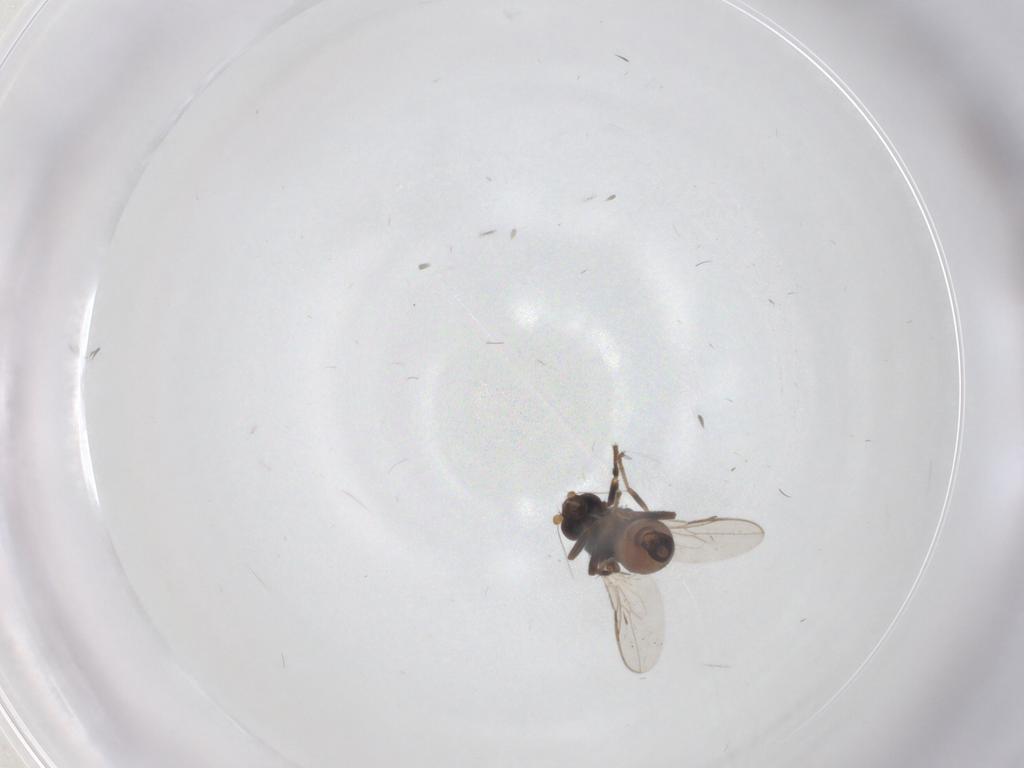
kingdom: Animalia
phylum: Arthropoda
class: Insecta
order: Diptera
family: Sphaeroceridae
